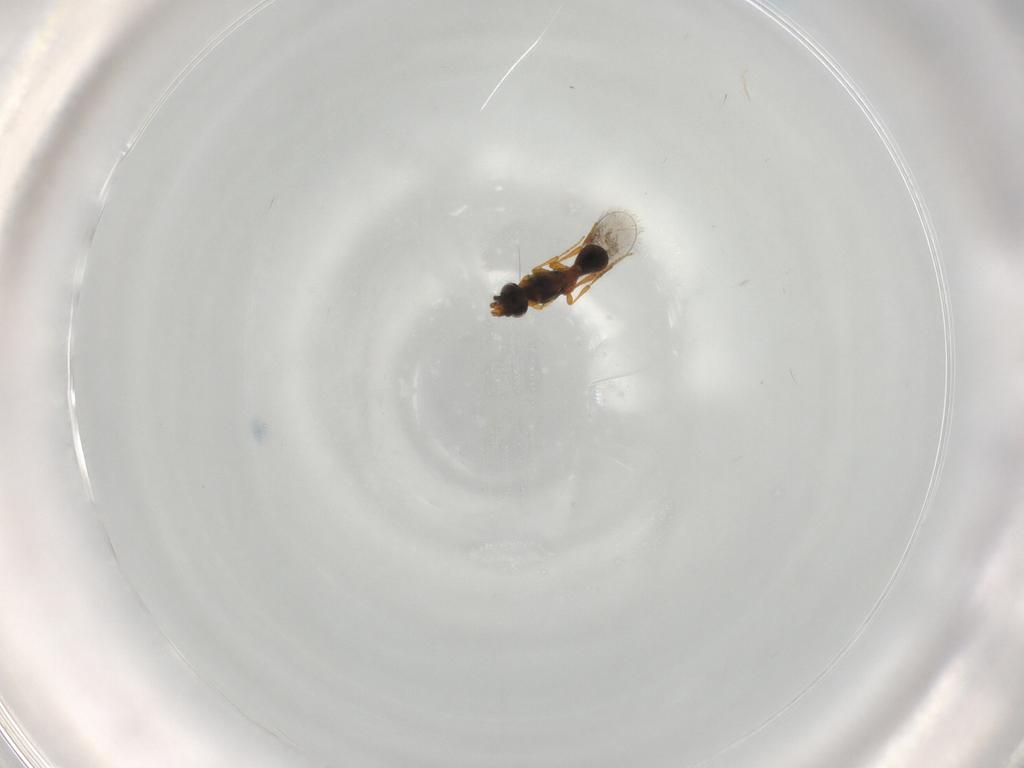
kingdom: Animalia
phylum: Arthropoda
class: Insecta
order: Hymenoptera
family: Platygastridae
